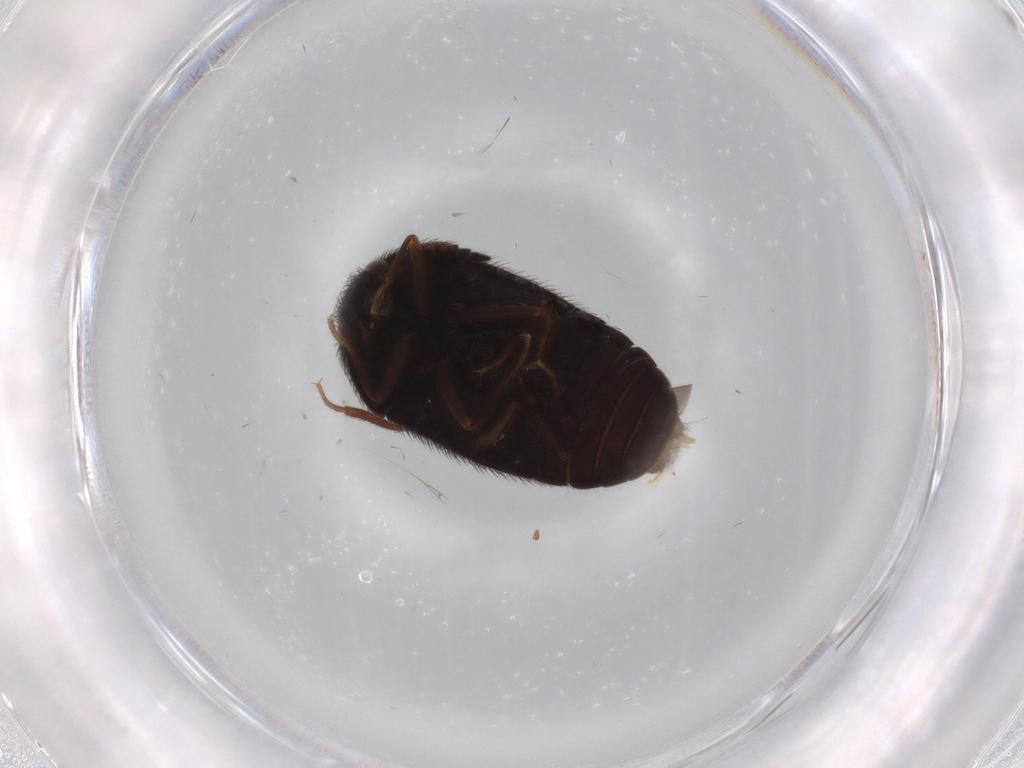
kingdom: Animalia
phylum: Arthropoda
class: Insecta
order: Coleoptera
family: Dermestidae
